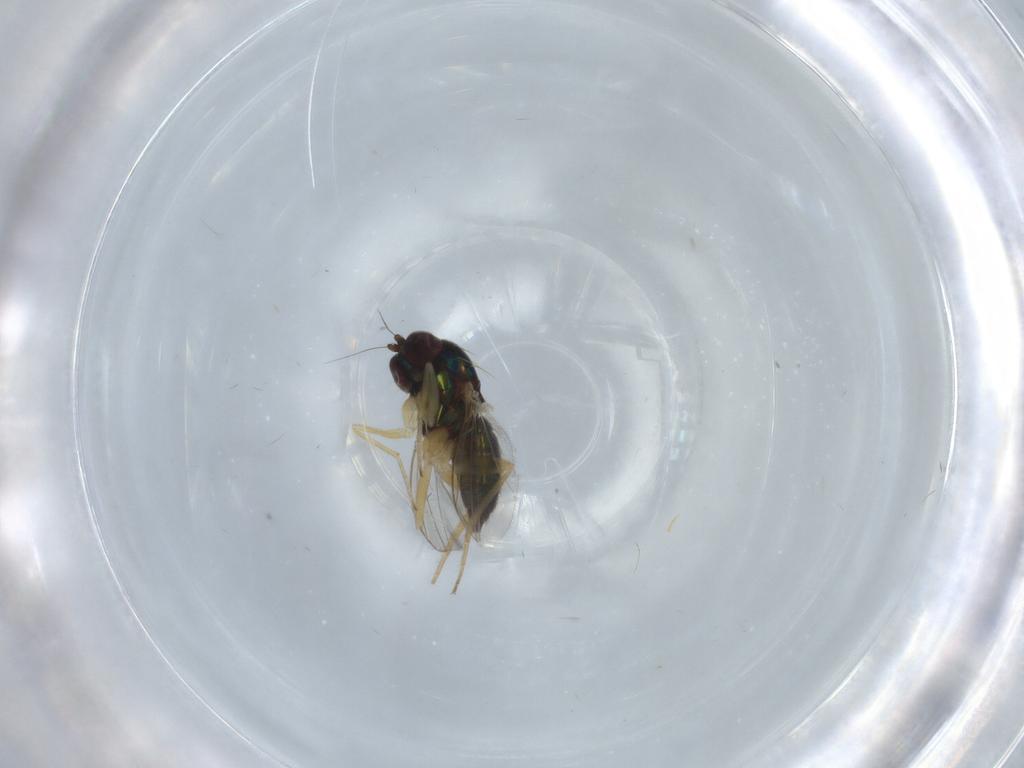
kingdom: Animalia
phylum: Arthropoda
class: Insecta
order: Diptera
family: Dolichopodidae
